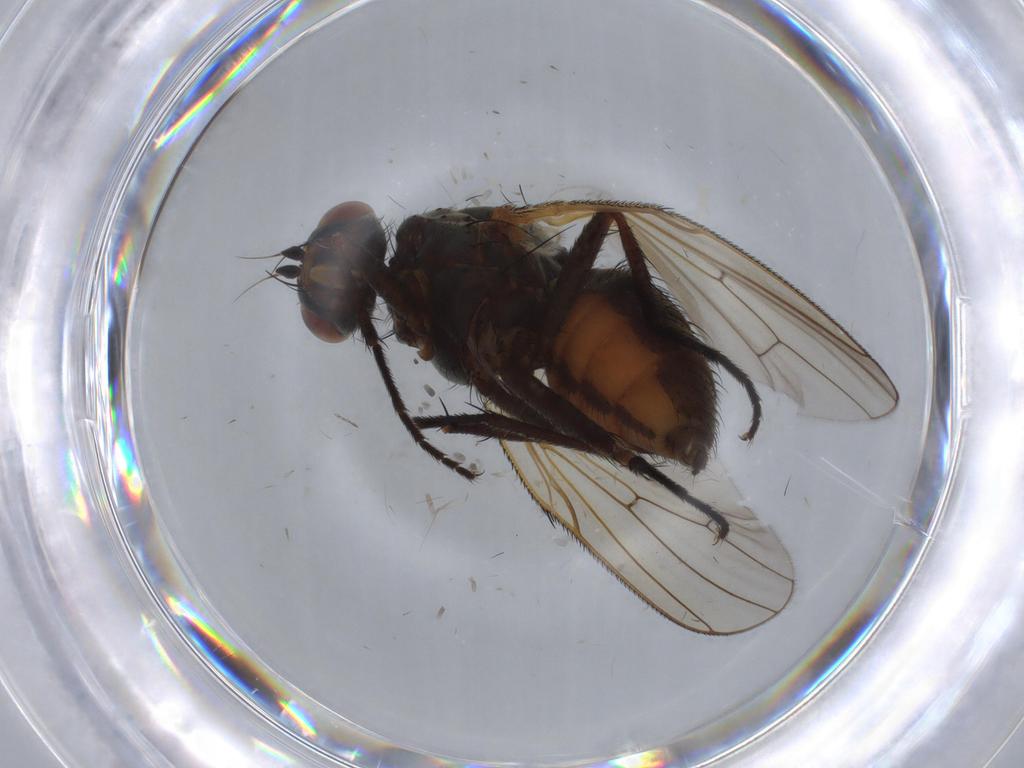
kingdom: Animalia
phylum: Arthropoda
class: Insecta
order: Diptera
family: Anthomyiidae
